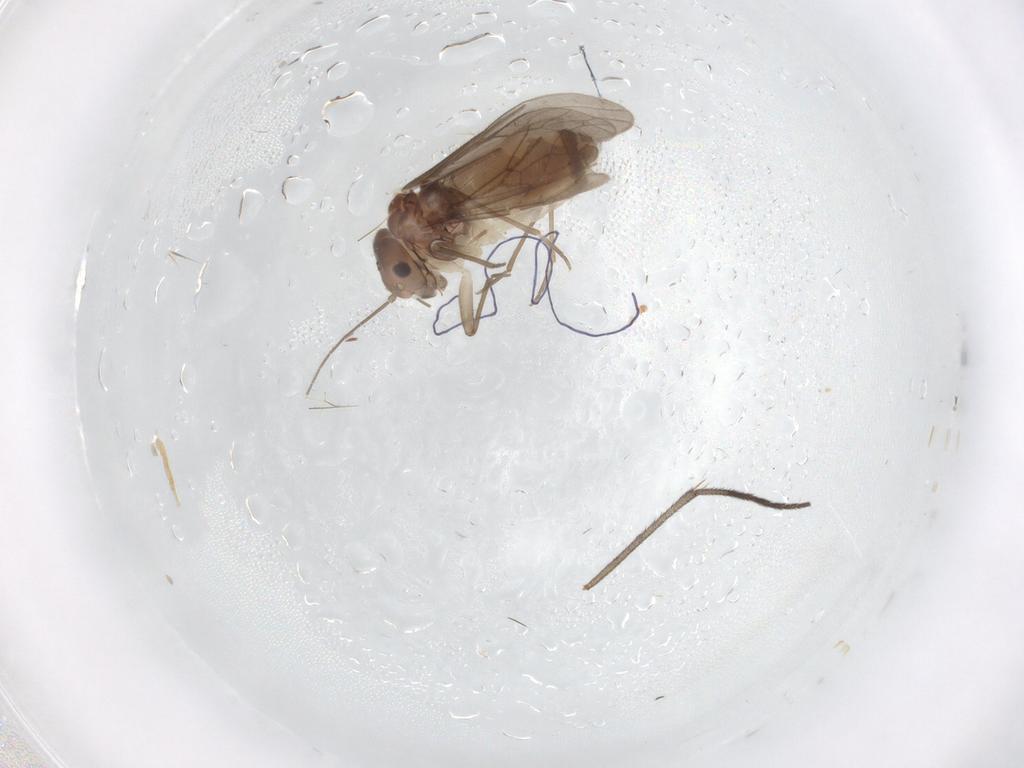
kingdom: Animalia
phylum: Arthropoda
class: Insecta
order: Psocodea
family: Caeciliusidae
